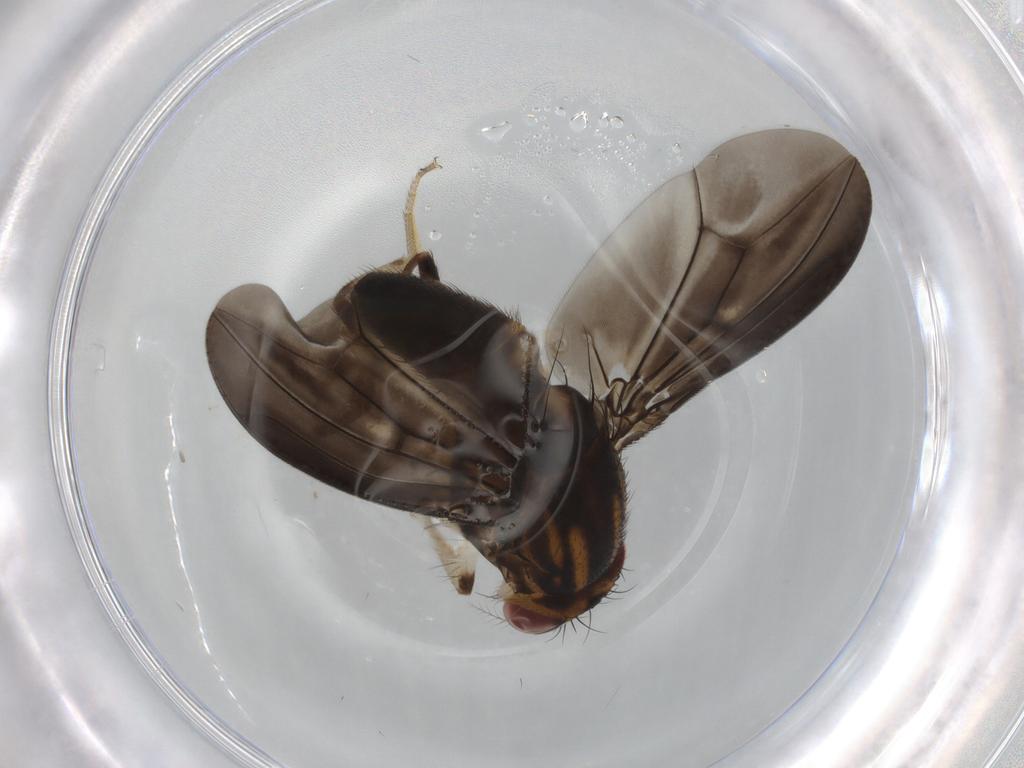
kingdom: Animalia
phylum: Arthropoda
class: Insecta
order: Diptera
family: Drosophilidae
